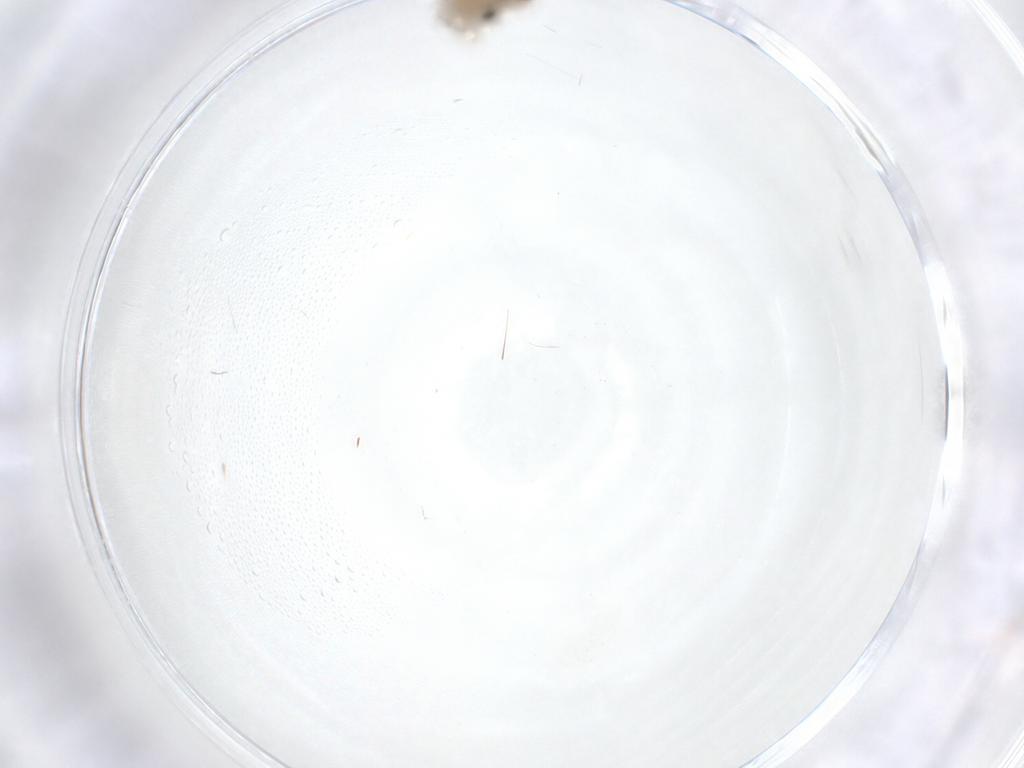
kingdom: Animalia
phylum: Arthropoda
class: Insecta
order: Psocodea
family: Lachesillidae
